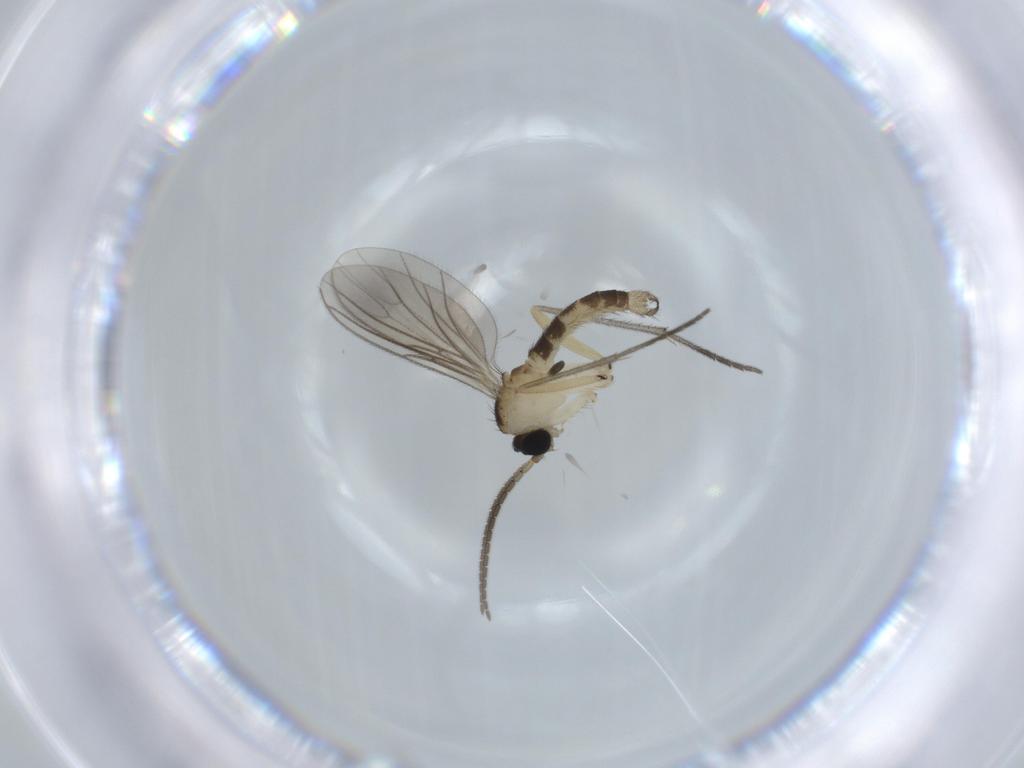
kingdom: Animalia
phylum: Arthropoda
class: Insecta
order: Diptera
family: Sciaridae
